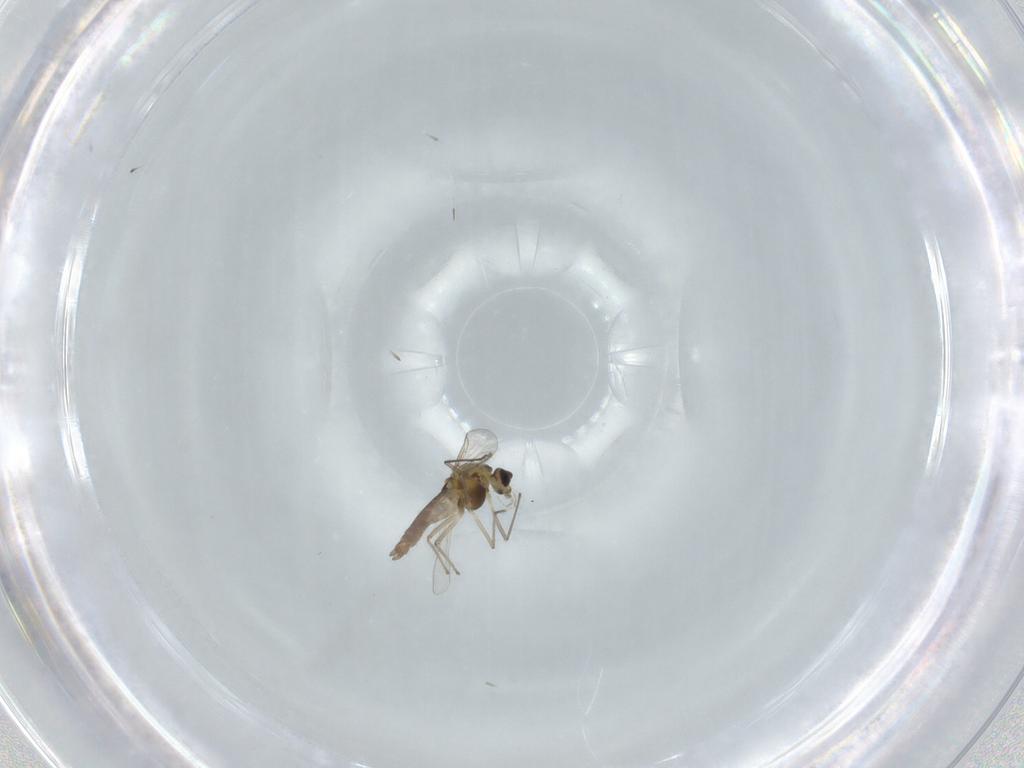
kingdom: Animalia
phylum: Arthropoda
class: Insecta
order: Diptera
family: Chironomidae
